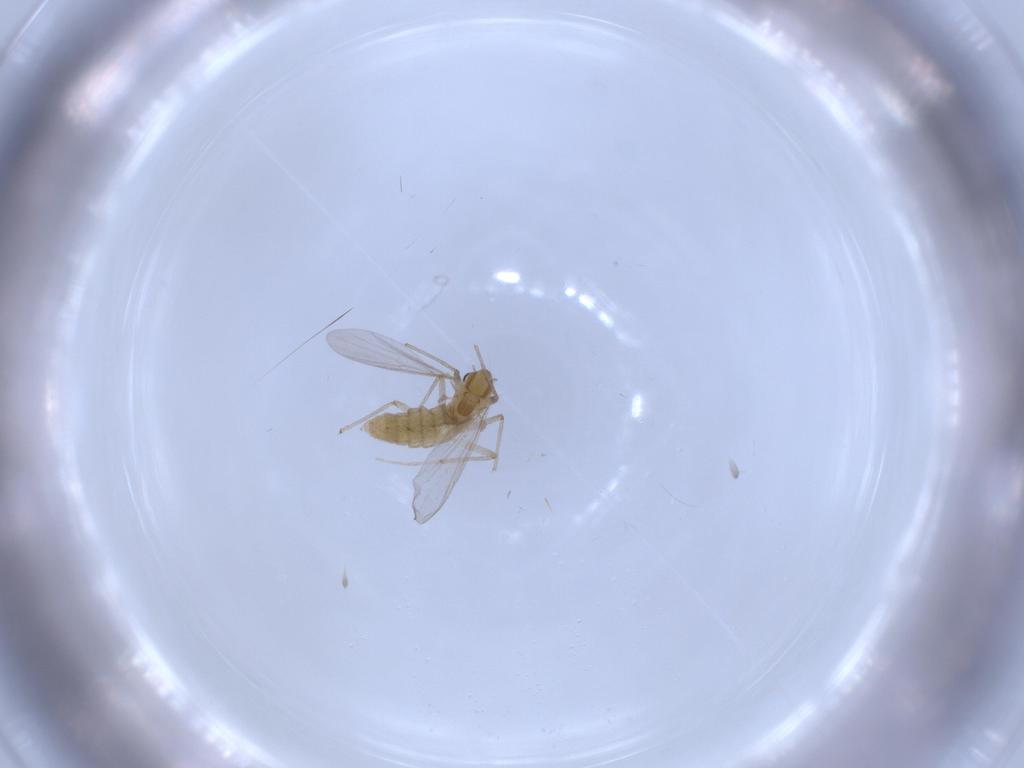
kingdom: Animalia
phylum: Arthropoda
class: Insecta
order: Diptera
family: Chironomidae
